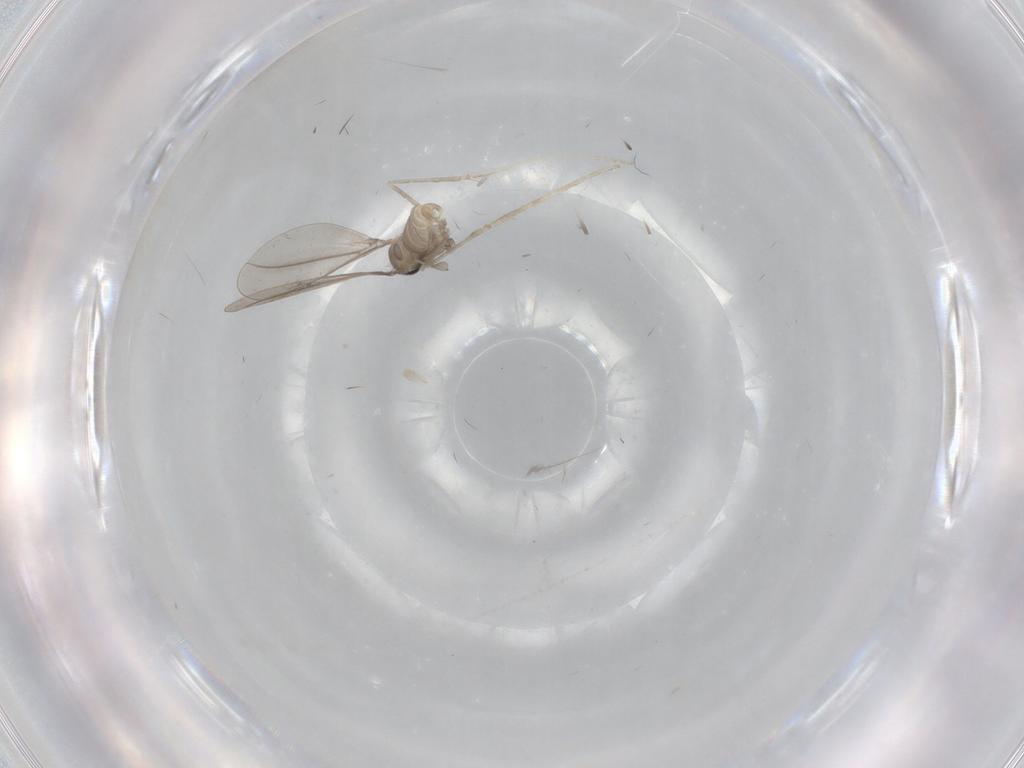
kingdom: Animalia
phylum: Arthropoda
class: Insecta
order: Diptera
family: Cecidomyiidae
